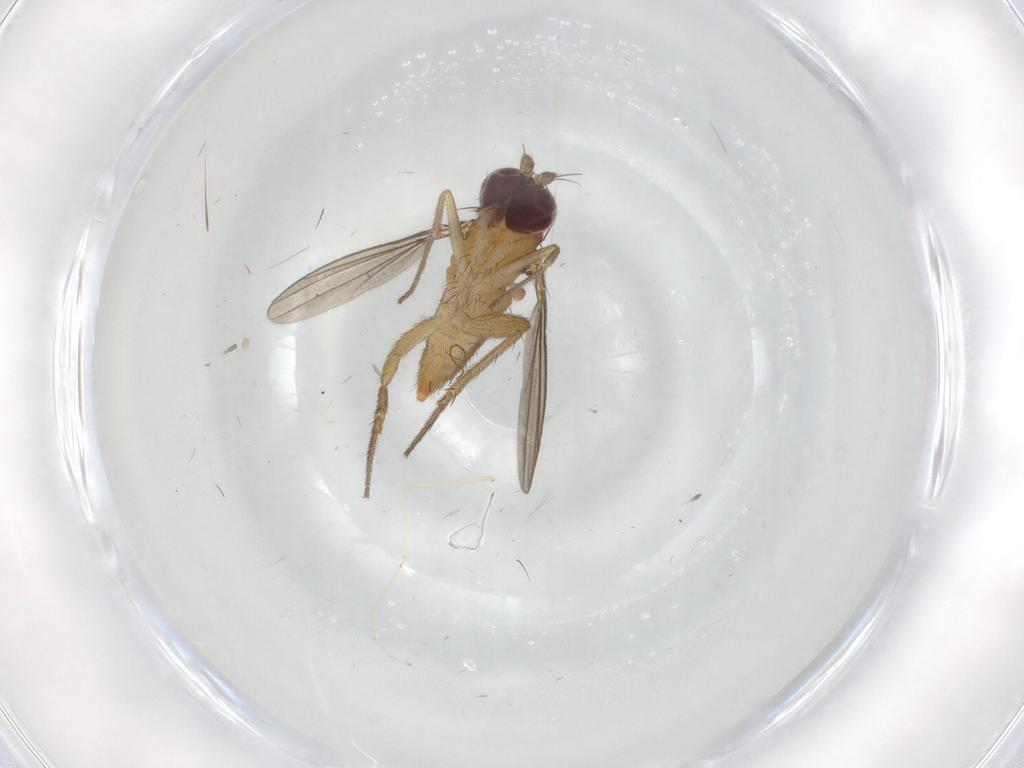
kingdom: Animalia
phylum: Arthropoda
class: Insecta
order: Diptera
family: Dolichopodidae
